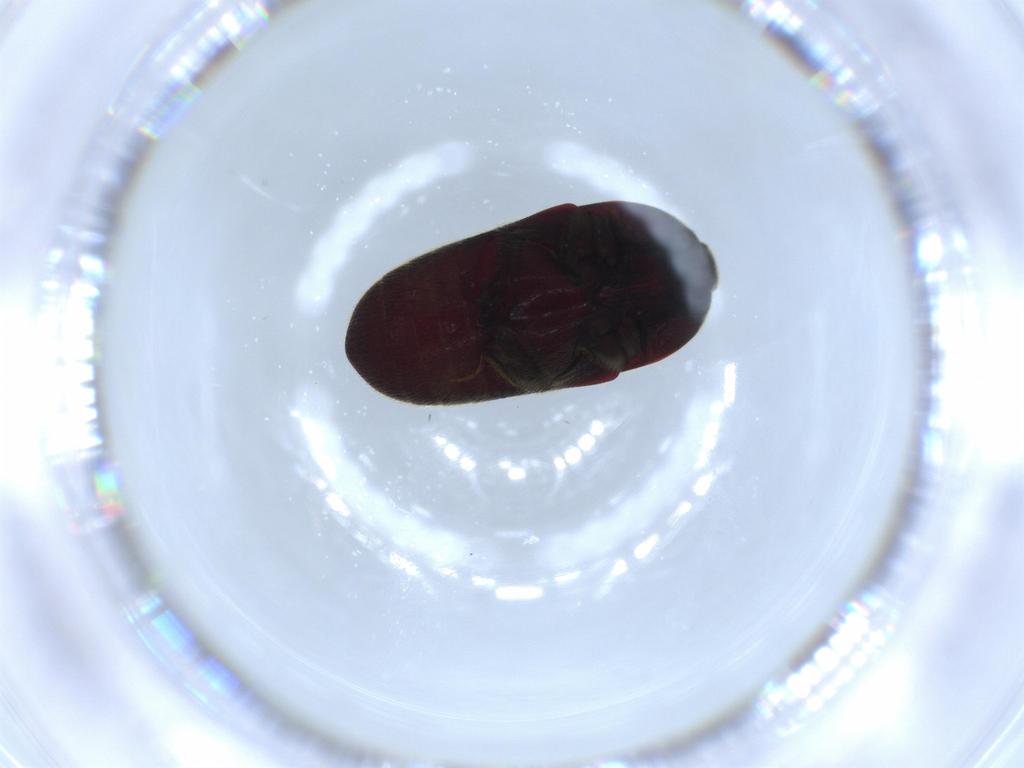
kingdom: Animalia
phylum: Arthropoda
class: Insecta
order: Coleoptera
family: Throscidae
